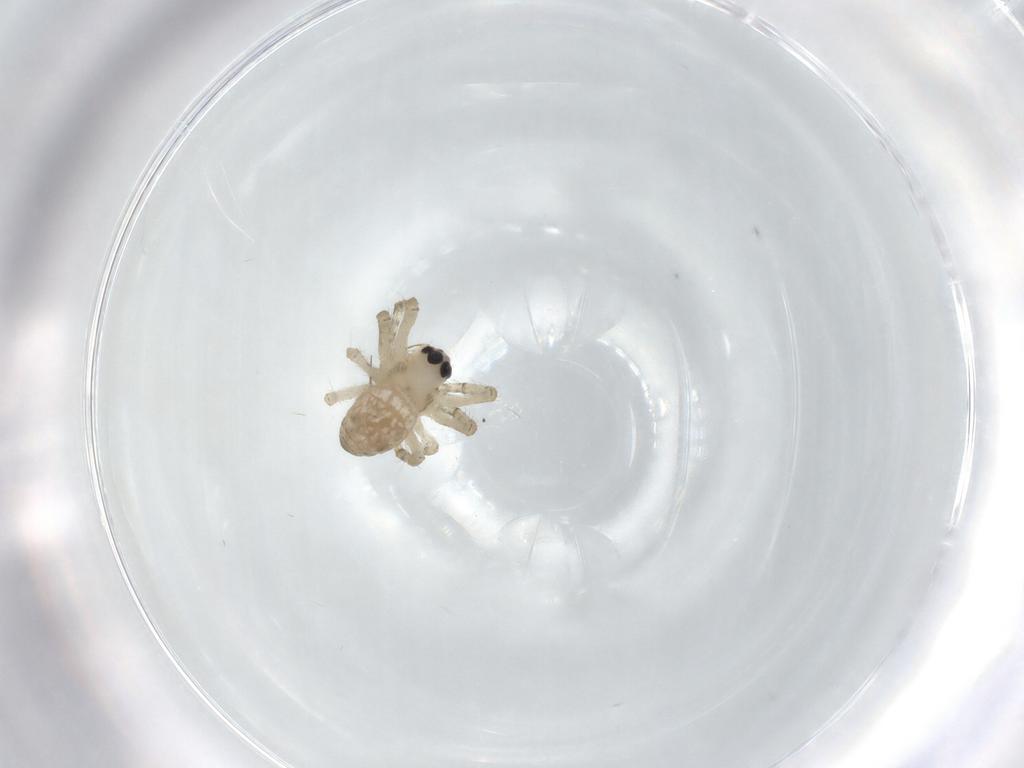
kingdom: Animalia
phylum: Arthropoda
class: Arachnida
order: Araneae
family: Araneidae
